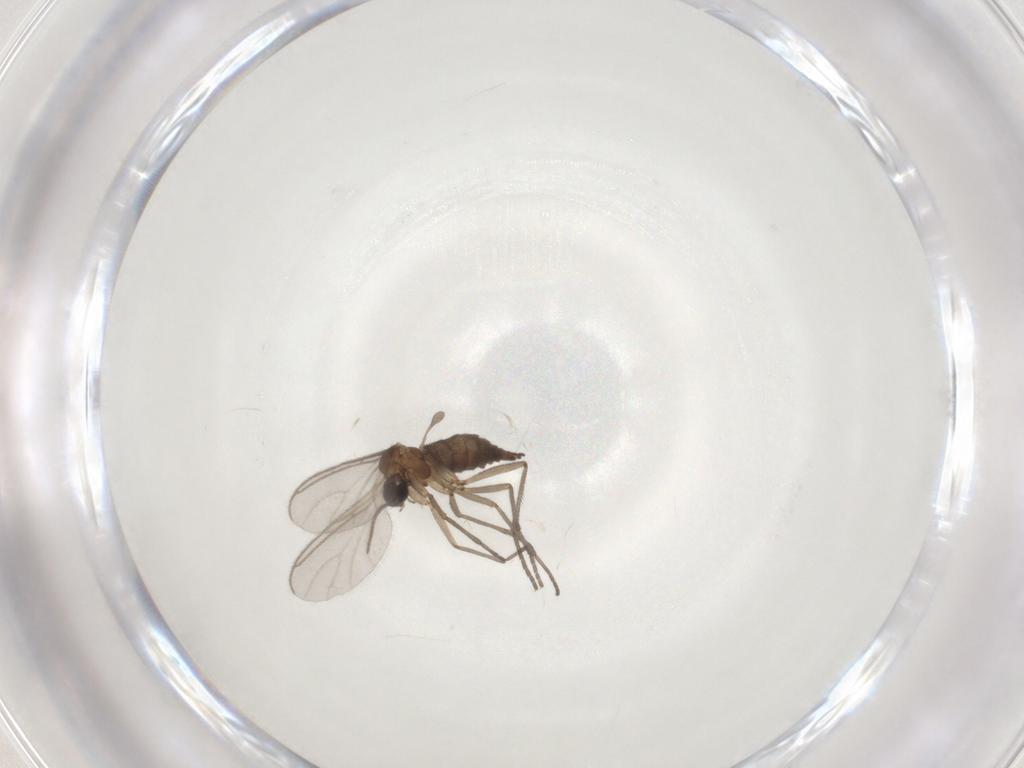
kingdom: Animalia
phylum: Arthropoda
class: Insecta
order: Diptera
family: Sciaridae
